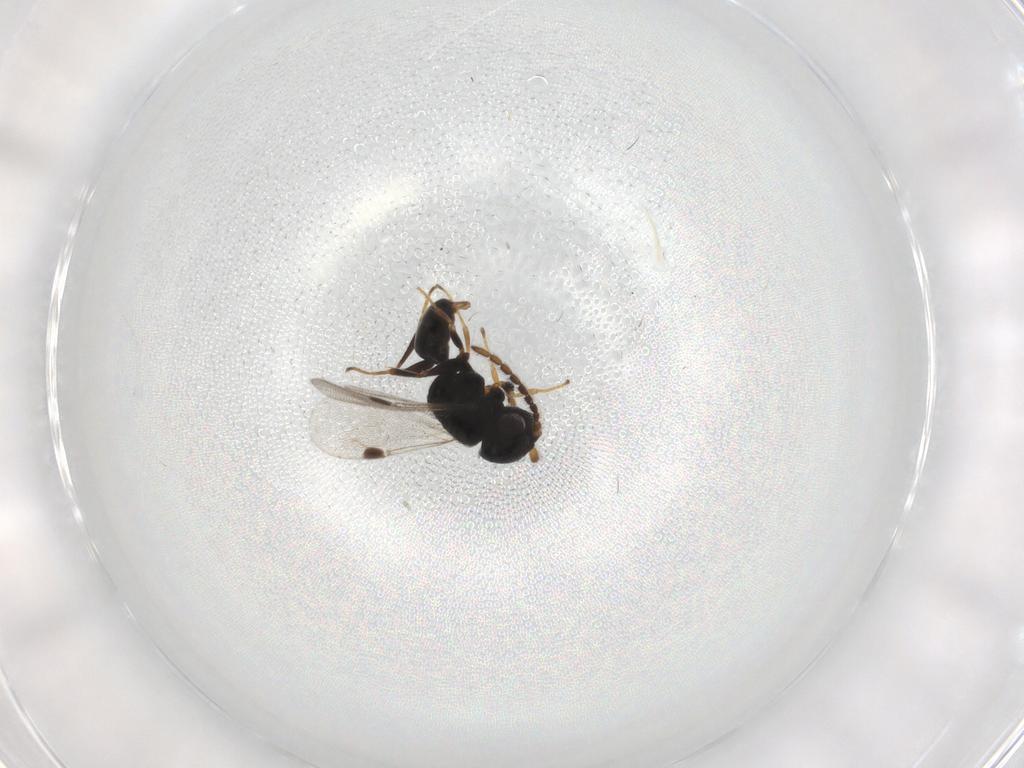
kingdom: Animalia
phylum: Arthropoda
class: Insecta
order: Hymenoptera
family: Dryinidae
